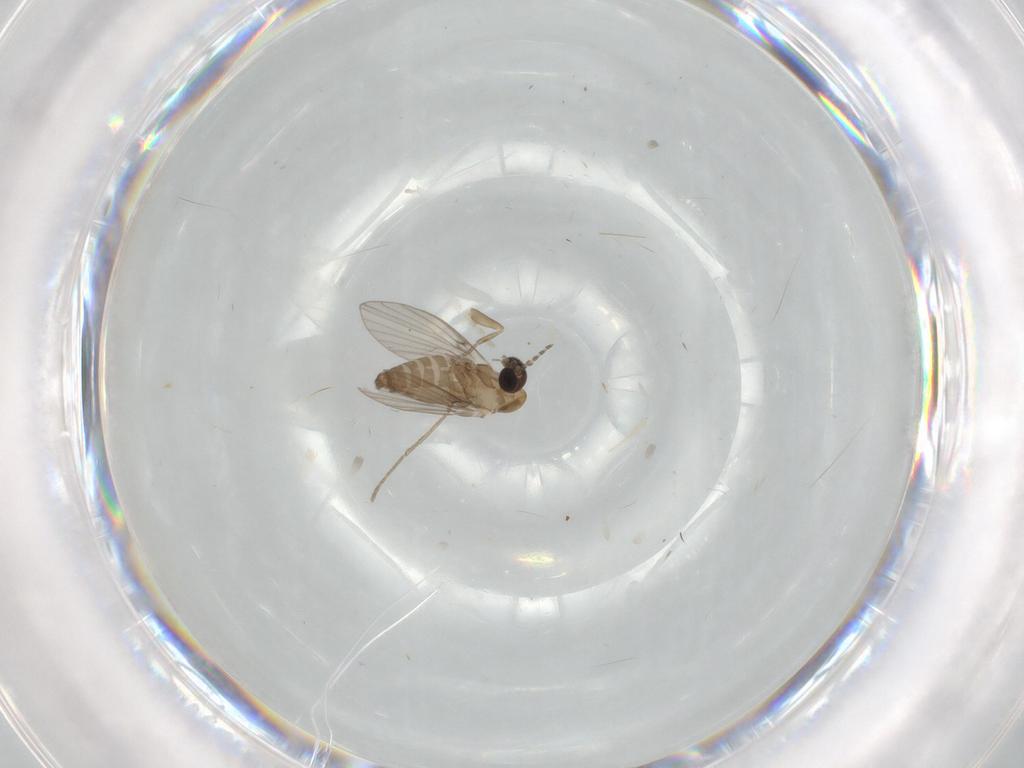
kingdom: Animalia
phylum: Arthropoda
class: Insecta
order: Diptera
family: Psychodidae
